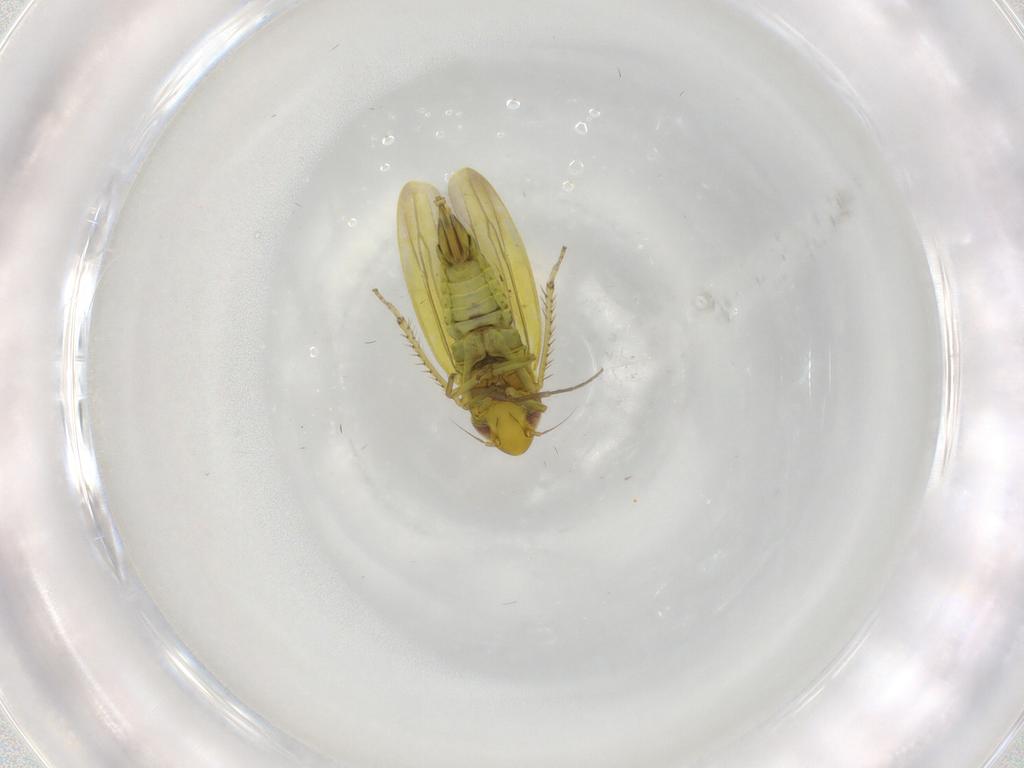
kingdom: Animalia
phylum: Arthropoda
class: Insecta
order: Hemiptera
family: Cicadellidae
